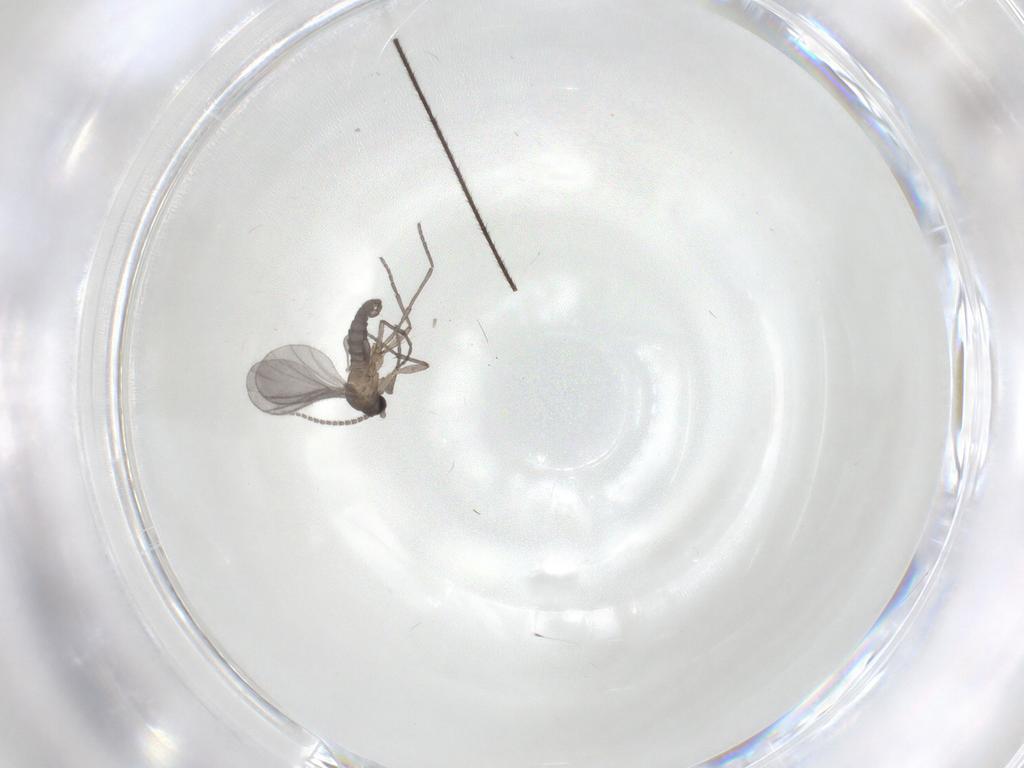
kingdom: Animalia
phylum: Arthropoda
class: Insecta
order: Diptera
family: Sciaridae
